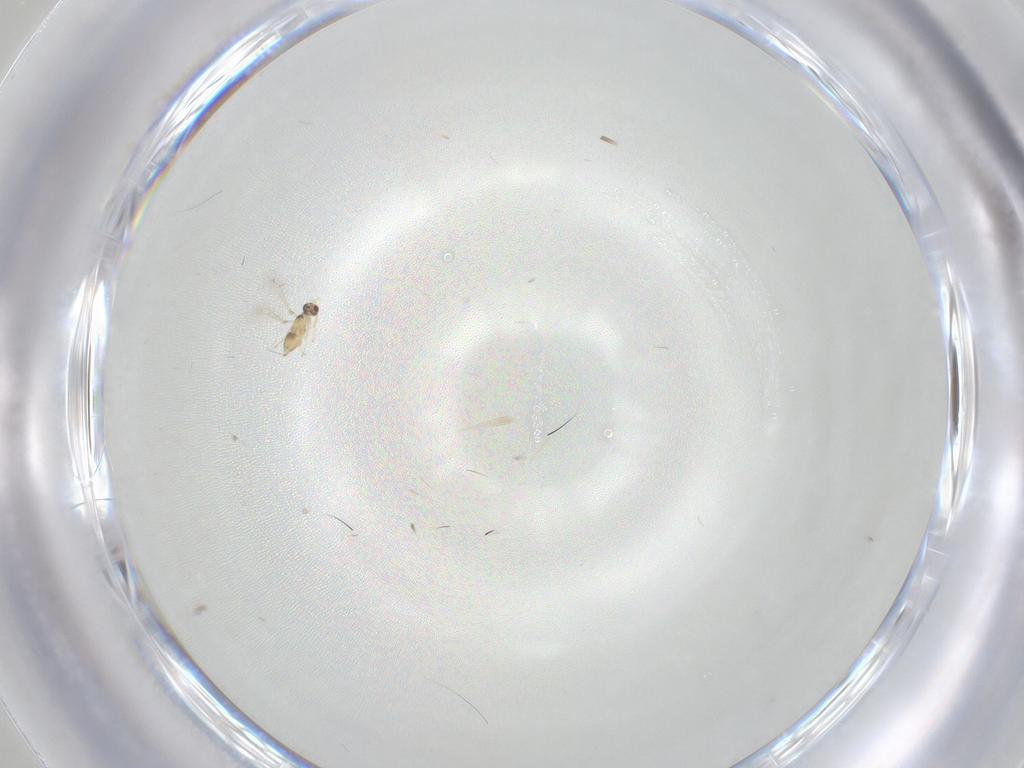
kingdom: Animalia
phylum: Arthropoda
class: Insecta
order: Hymenoptera
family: Mymaridae
